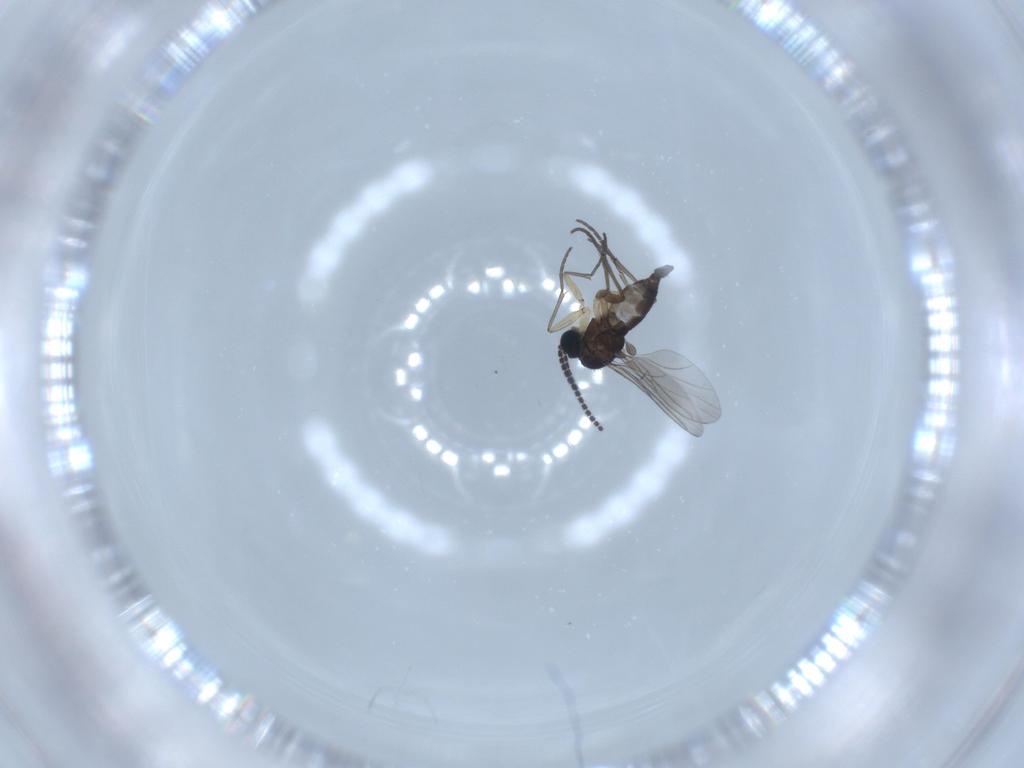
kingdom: Animalia
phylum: Arthropoda
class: Insecta
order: Diptera
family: Sciaridae
